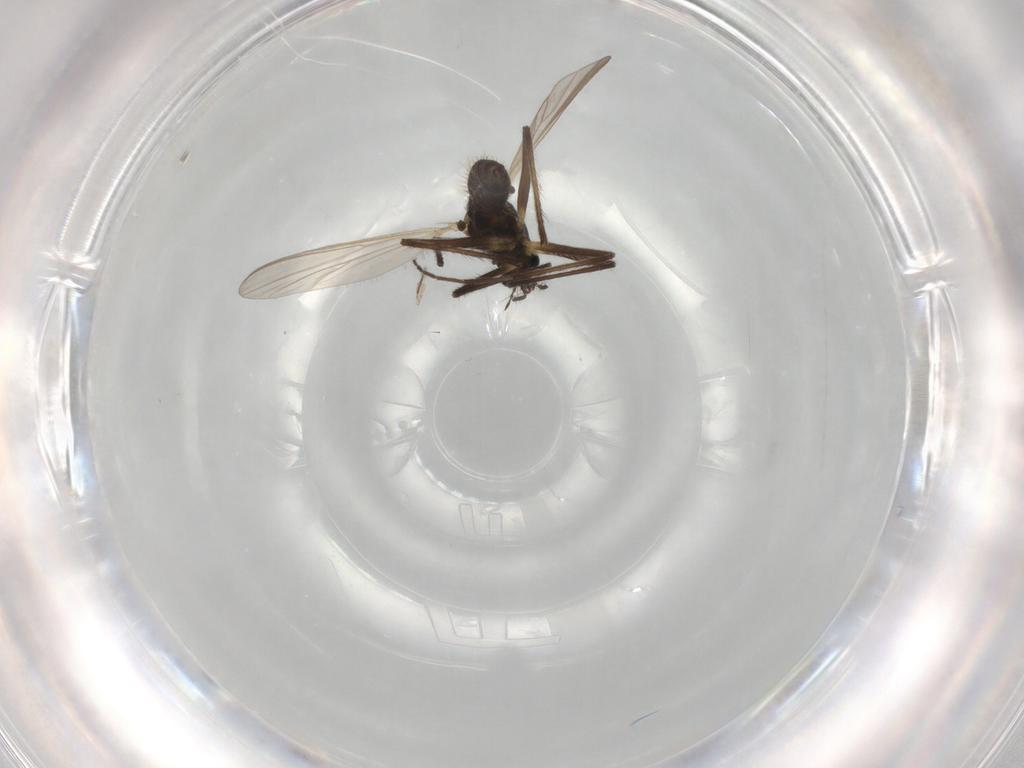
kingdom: Animalia
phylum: Arthropoda
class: Insecta
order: Diptera
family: Chironomidae
